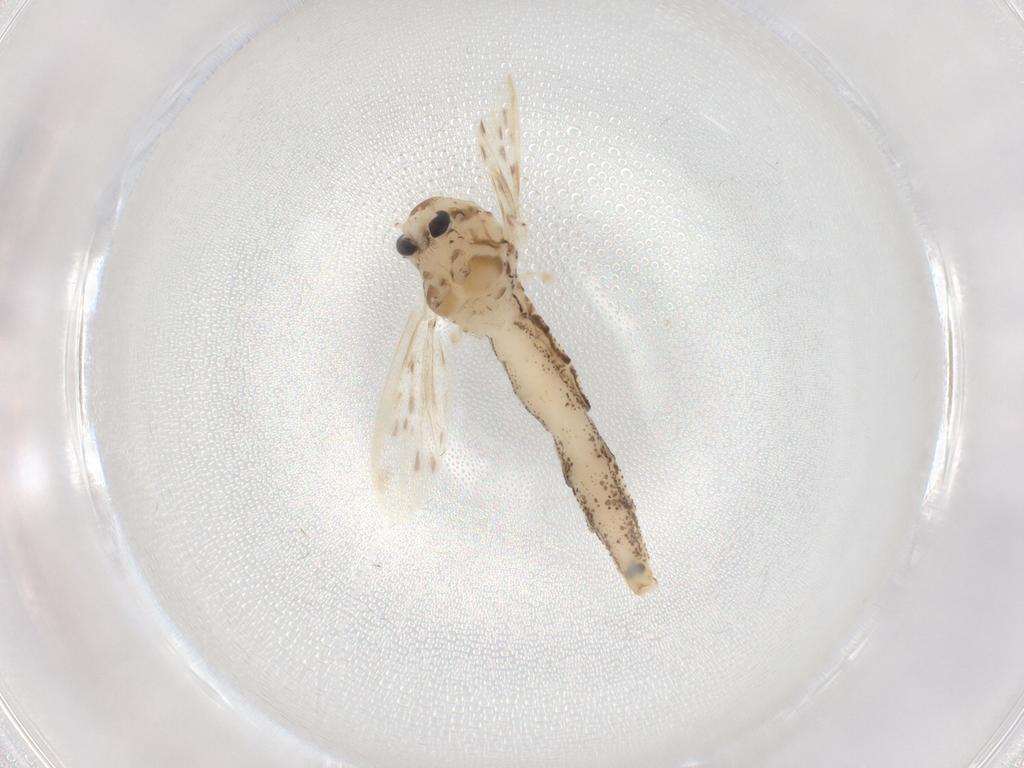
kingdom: Animalia
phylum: Arthropoda
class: Insecta
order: Diptera
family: Chaoboridae
